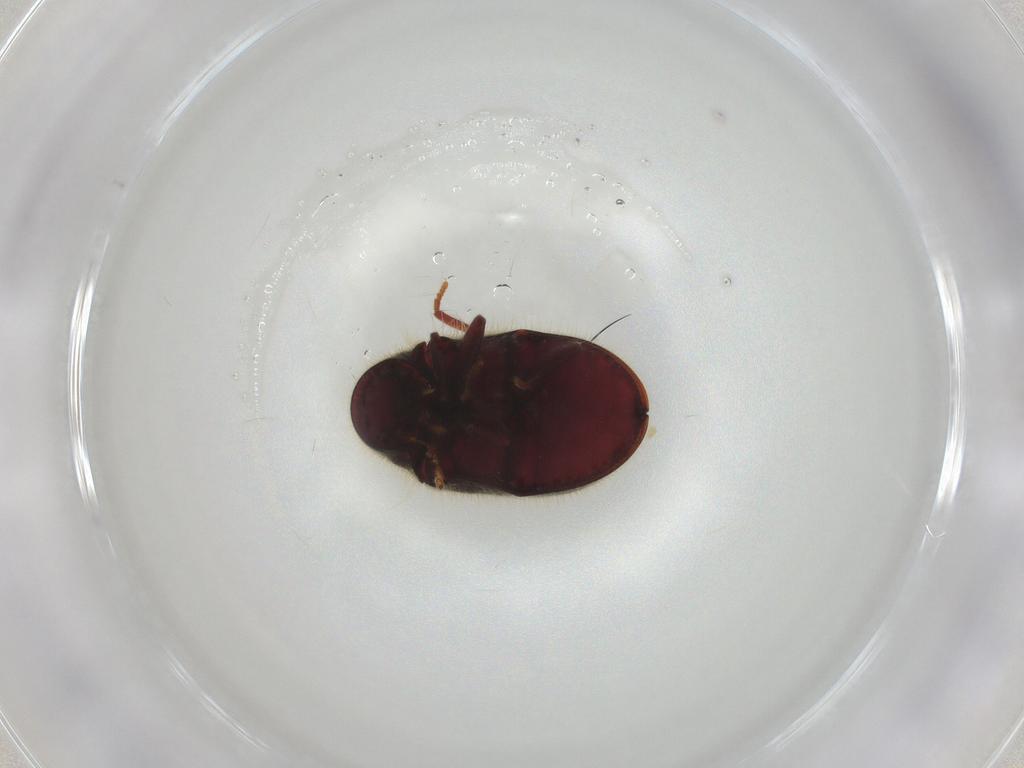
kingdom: Animalia
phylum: Arthropoda
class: Insecta
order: Coleoptera
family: Ptinidae
